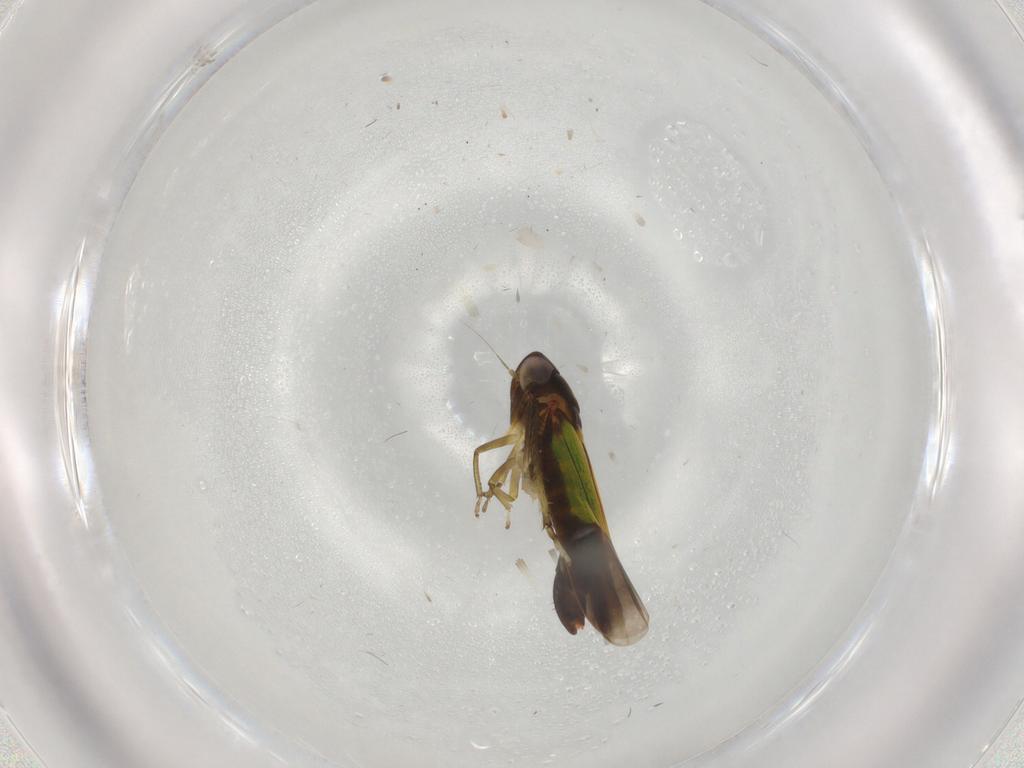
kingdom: Animalia
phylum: Arthropoda
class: Insecta
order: Hemiptera
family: Cicadellidae
